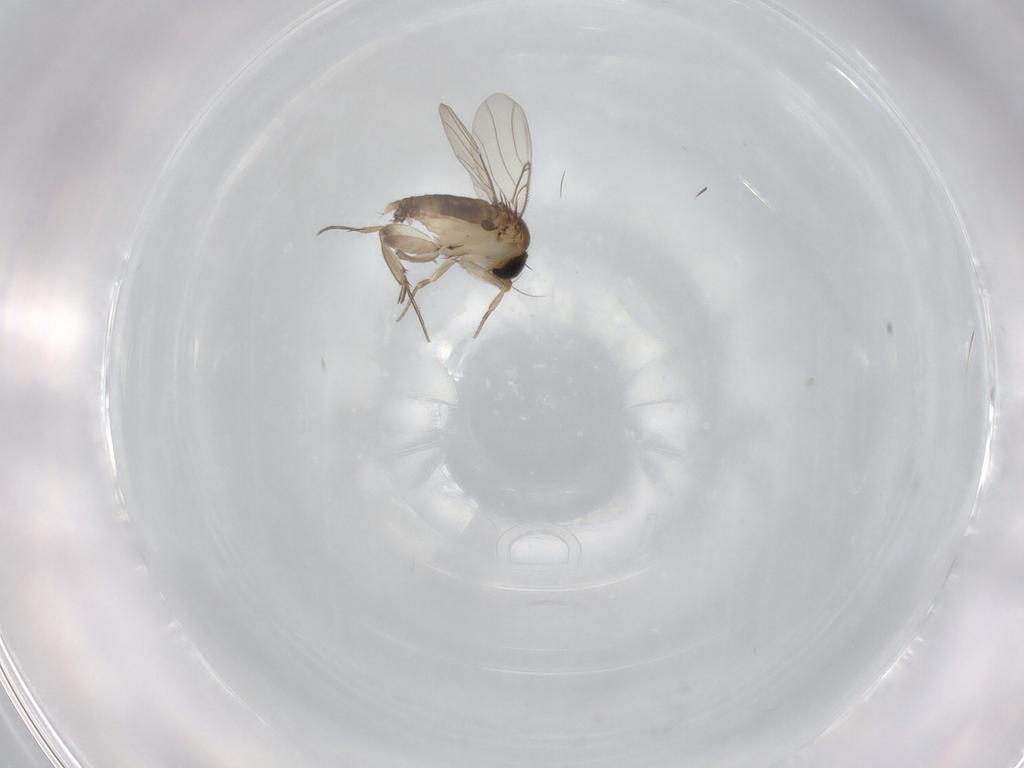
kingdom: Animalia
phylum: Arthropoda
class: Insecta
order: Diptera
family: Phoridae
